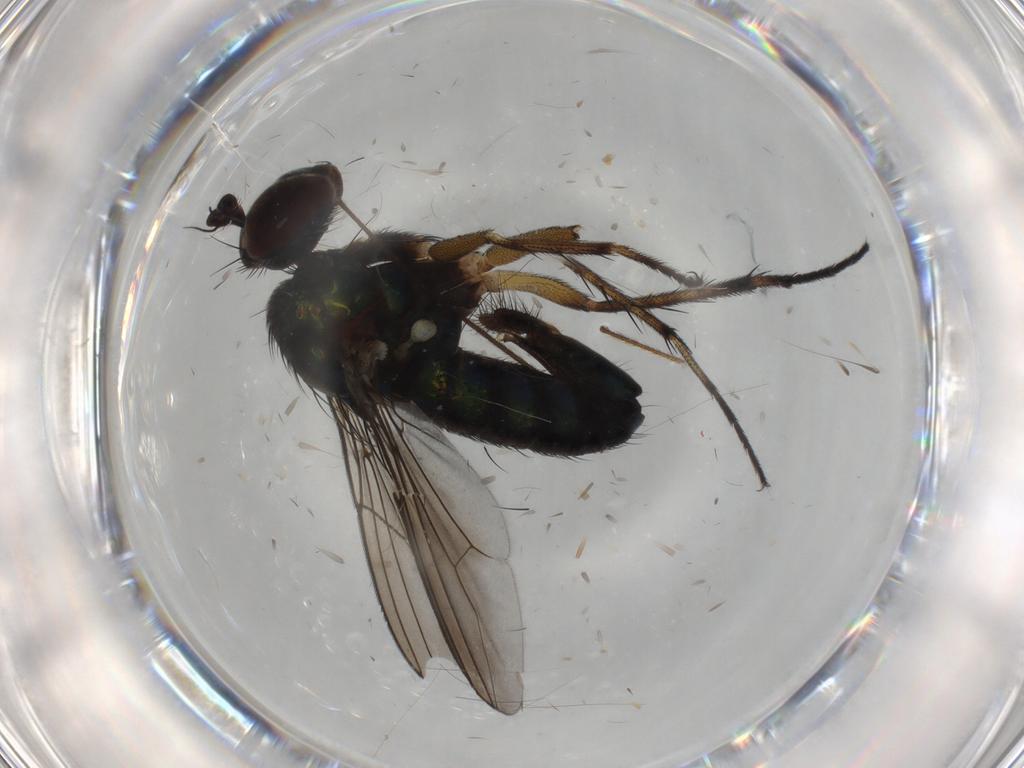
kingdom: Animalia
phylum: Arthropoda
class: Insecta
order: Diptera
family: Dolichopodidae
